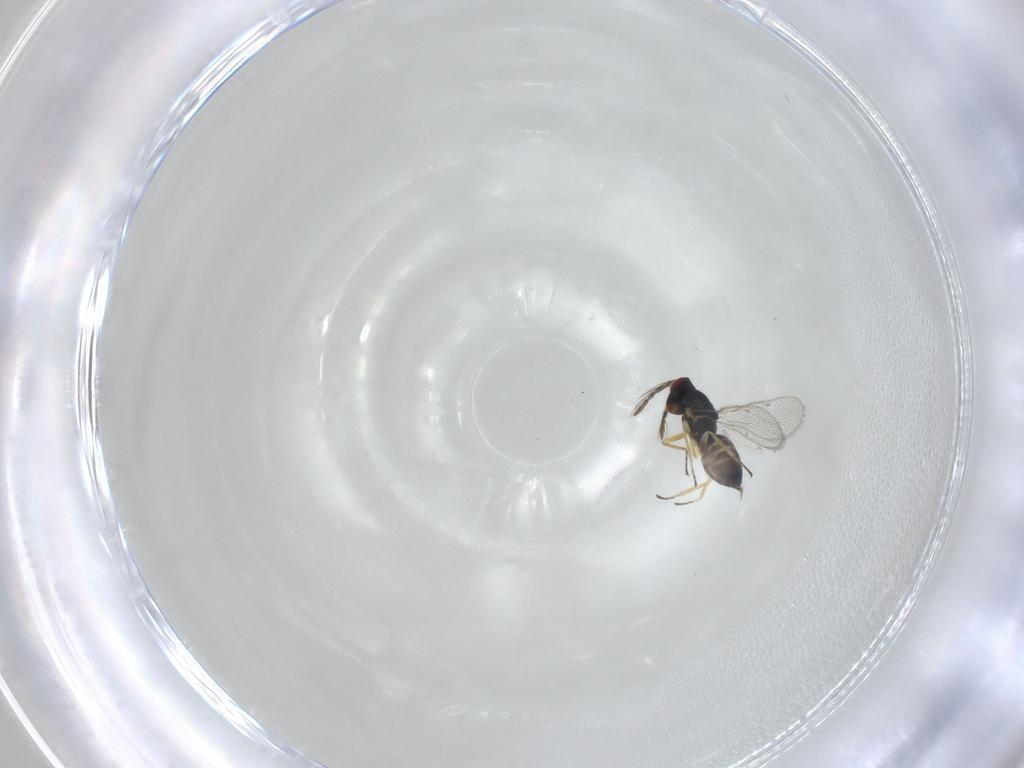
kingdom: Animalia
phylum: Arthropoda
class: Insecta
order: Hymenoptera
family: Eulophidae
